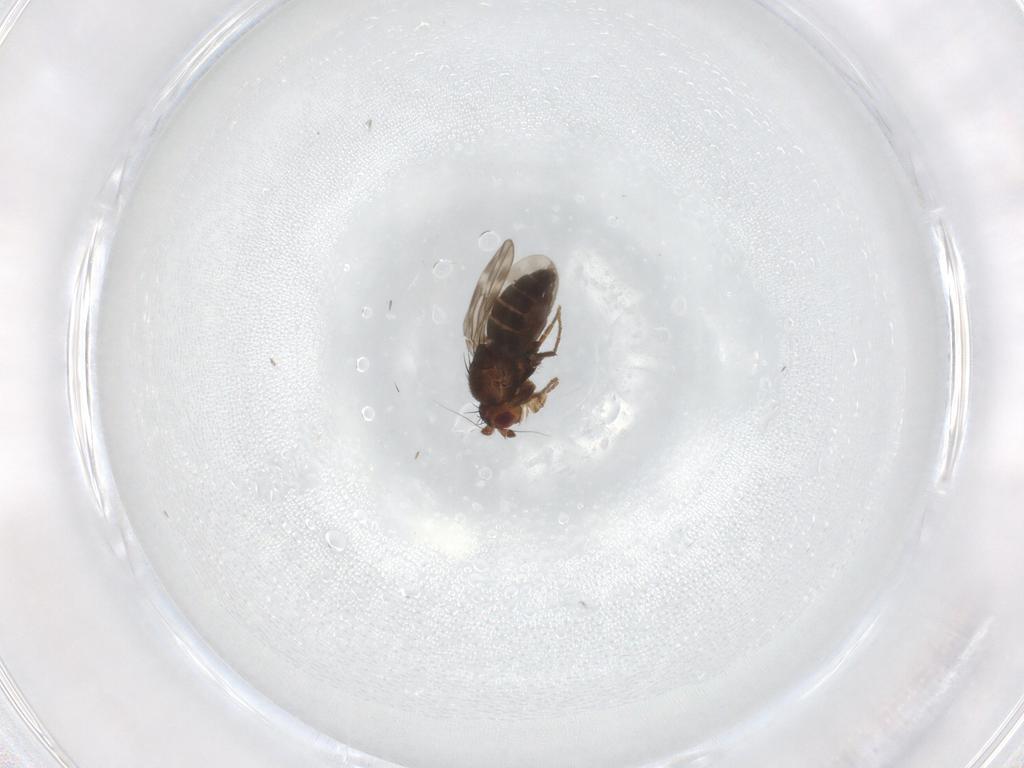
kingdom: Animalia
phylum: Arthropoda
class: Insecta
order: Diptera
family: Sphaeroceridae
